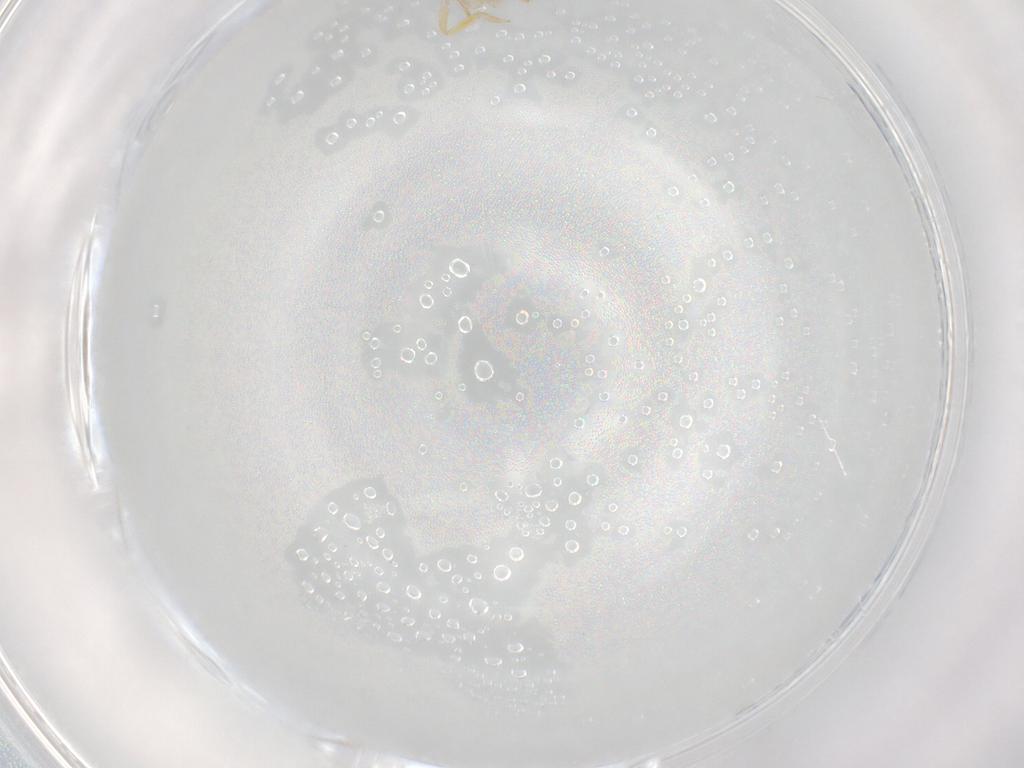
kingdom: Animalia
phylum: Arthropoda
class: Insecta
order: Hemiptera
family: Tropiduchidae
